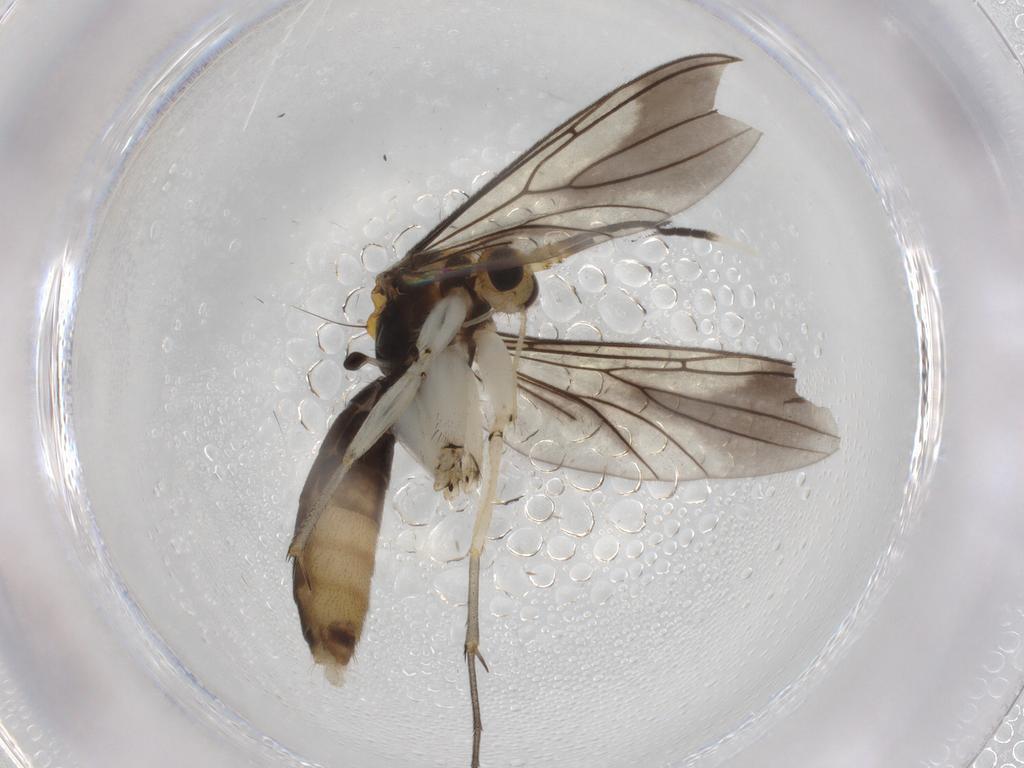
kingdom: Animalia
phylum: Arthropoda
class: Insecta
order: Diptera
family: Mycetophilidae
